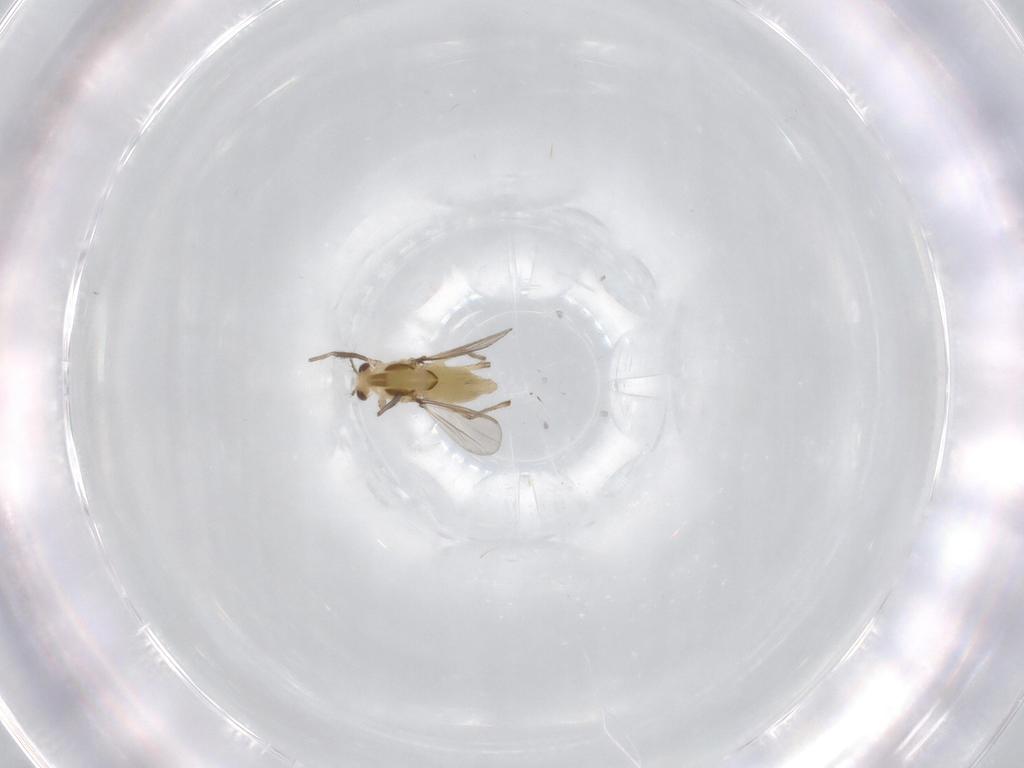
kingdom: Animalia
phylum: Arthropoda
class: Insecta
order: Diptera
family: Chironomidae
